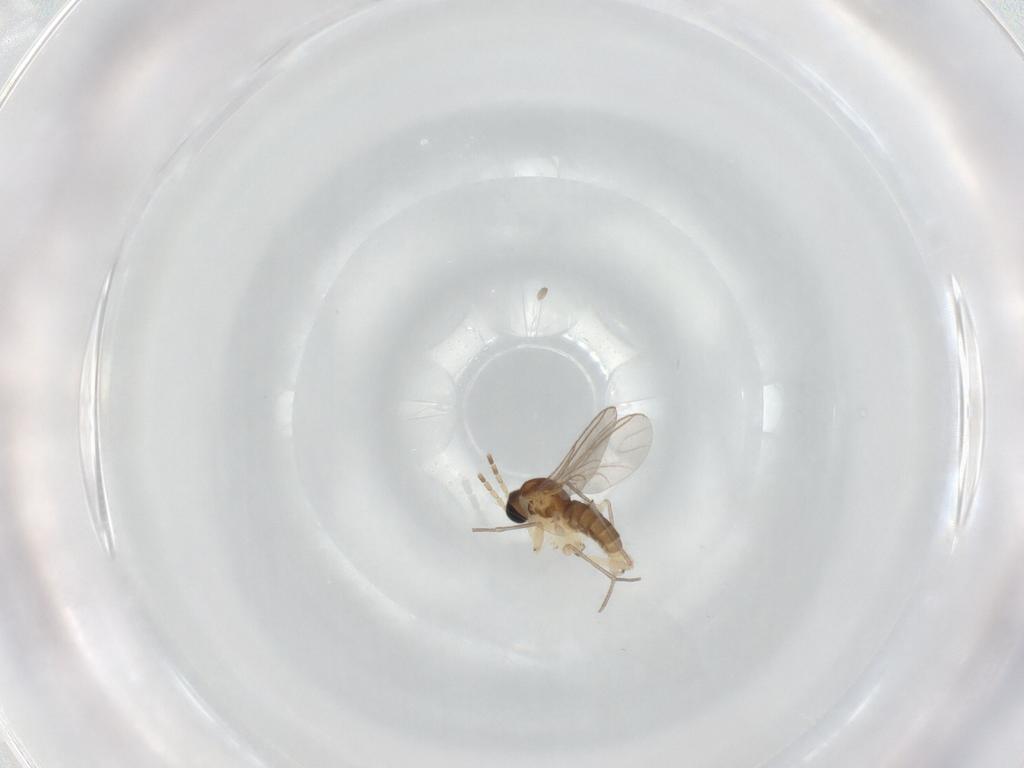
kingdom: Animalia
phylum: Arthropoda
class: Insecta
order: Diptera
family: Sciaridae
